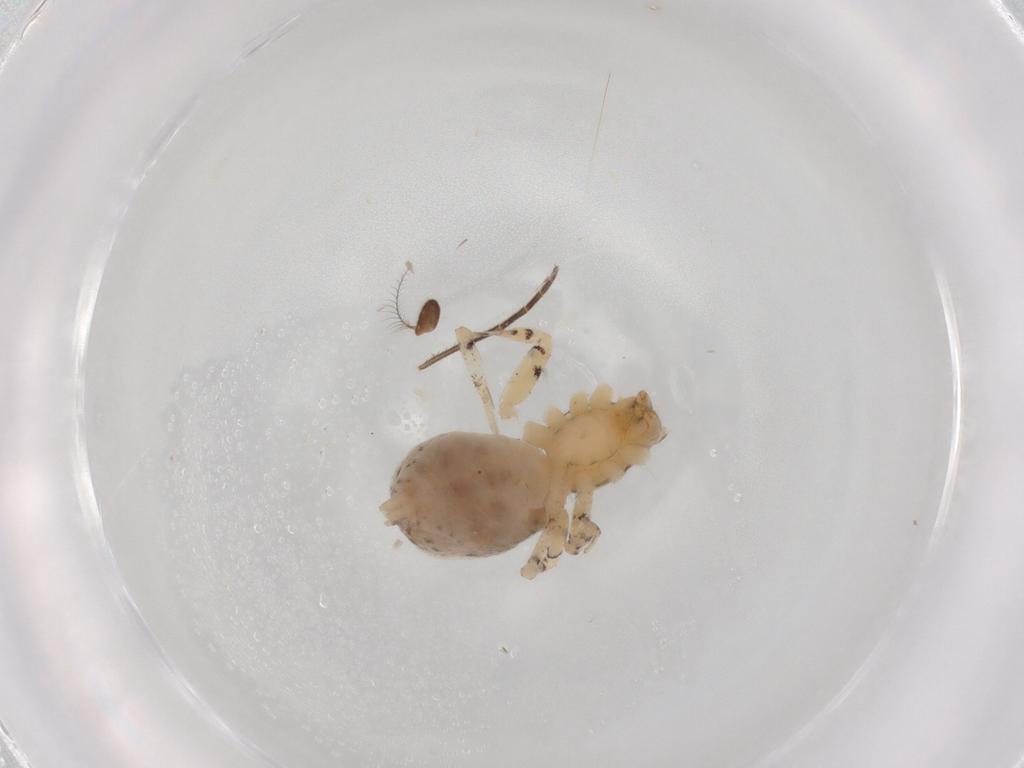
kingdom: Animalia
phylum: Arthropoda
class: Arachnida
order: Araneae
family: Anyphaenidae
